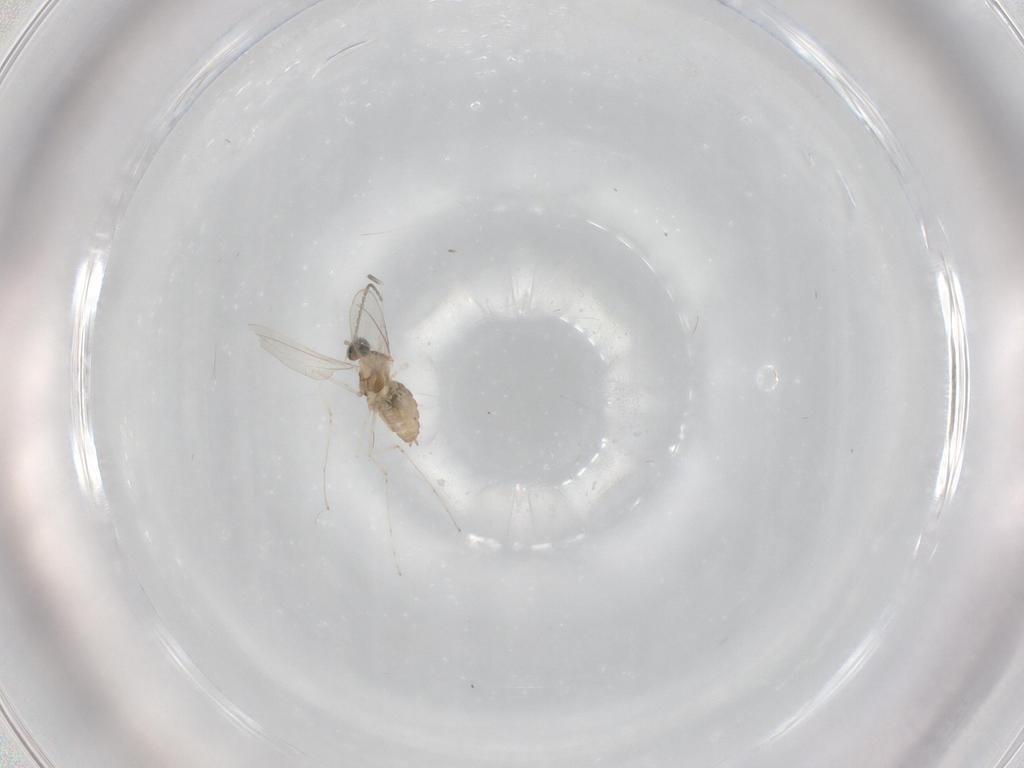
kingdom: Animalia
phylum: Arthropoda
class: Insecta
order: Diptera
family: Cecidomyiidae
